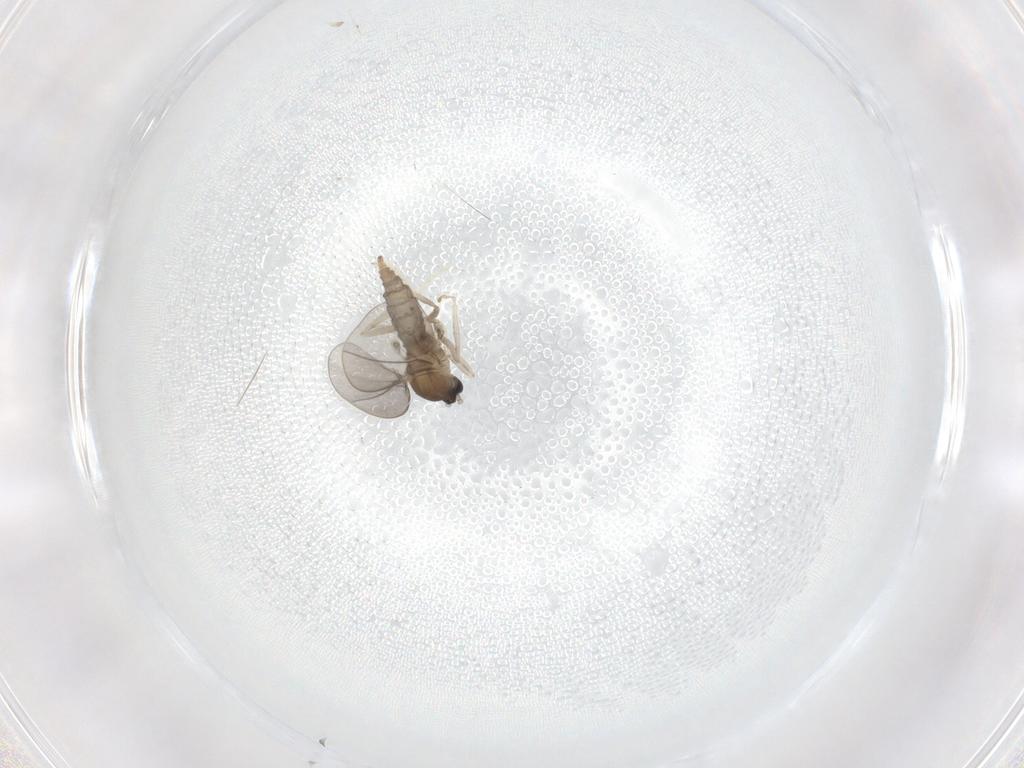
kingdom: Animalia
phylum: Arthropoda
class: Insecta
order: Diptera
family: Cecidomyiidae
